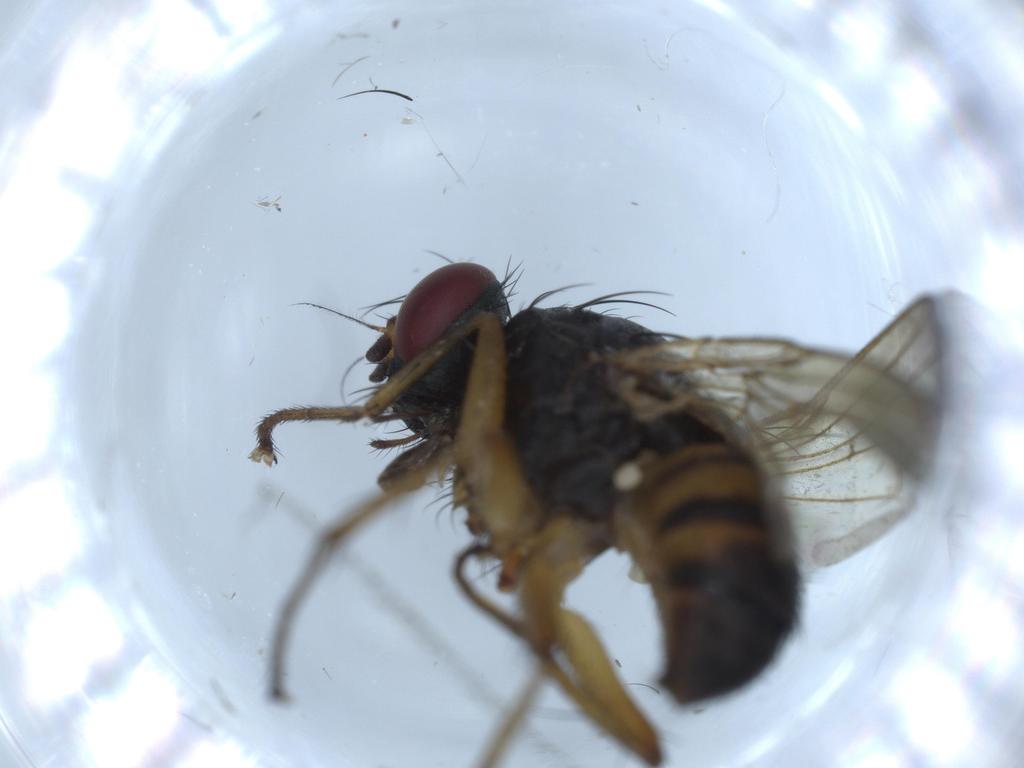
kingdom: Animalia
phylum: Arthropoda
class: Insecta
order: Diptera
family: Muscidae
